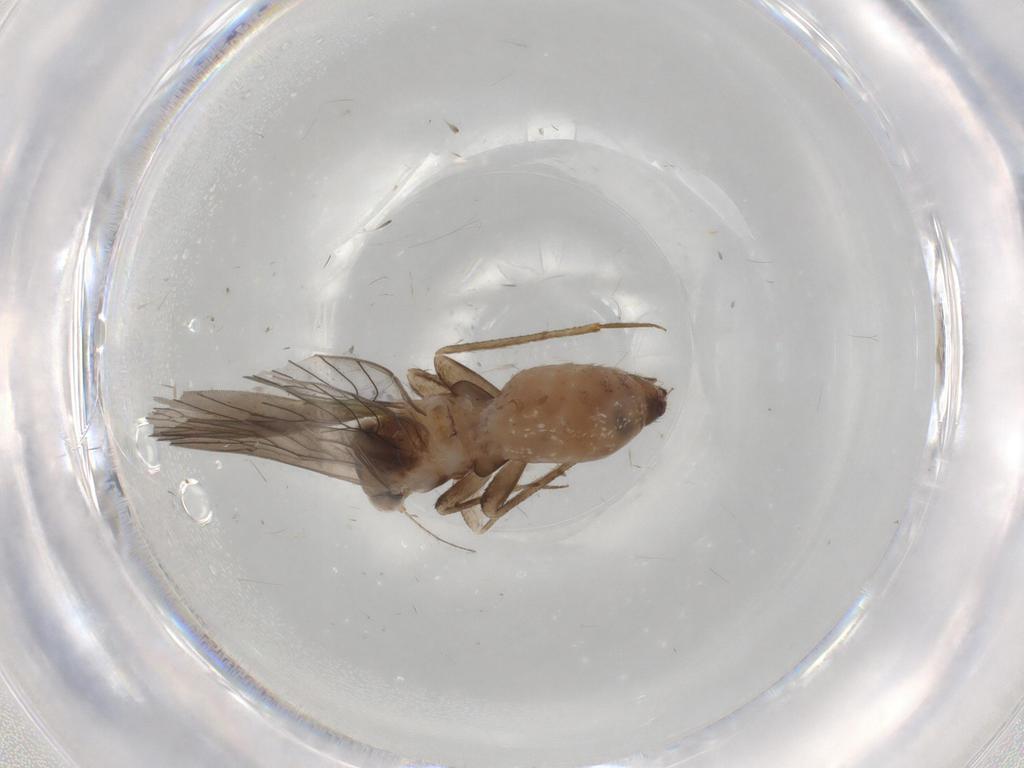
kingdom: Animalia
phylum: Arthropoda
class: Insecta
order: Psocodea
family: Lepidopsocidae
